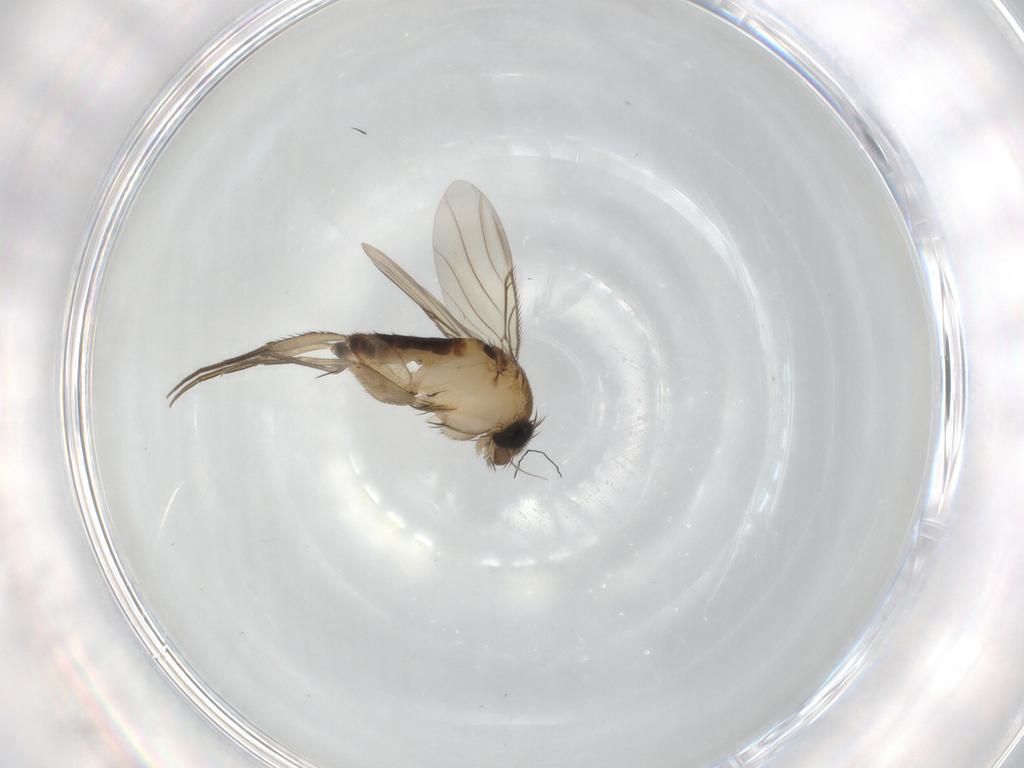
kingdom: Animalia
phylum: Arthropoda
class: Insecta
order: Diptera
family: Phoridae
